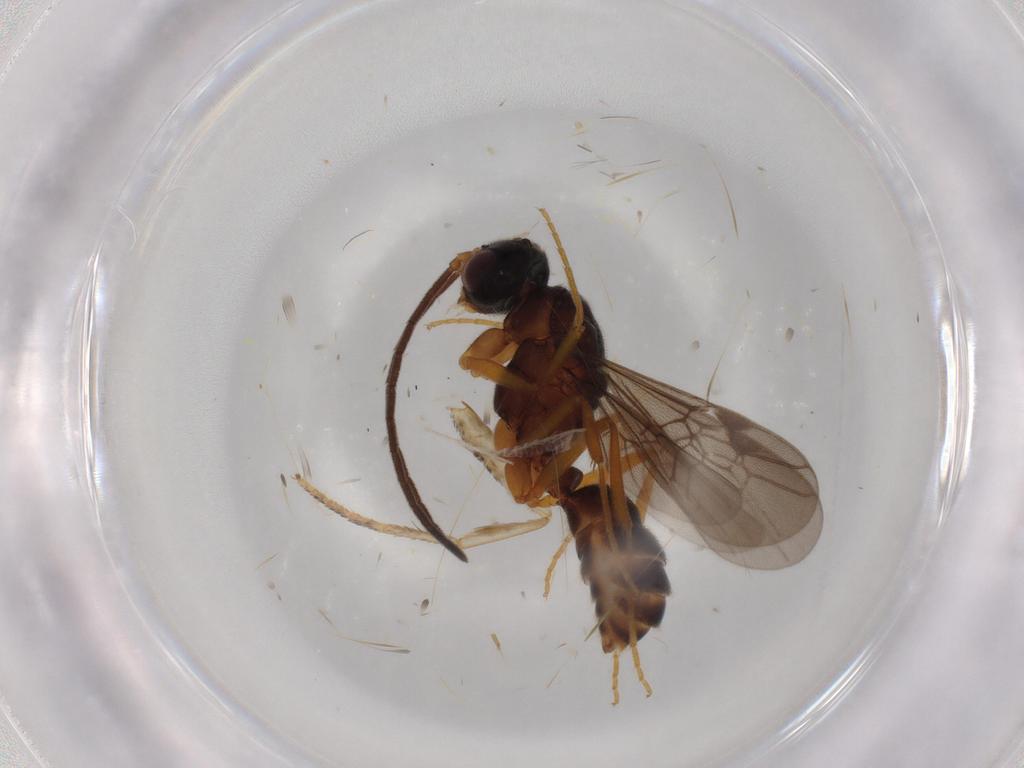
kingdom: Animalia
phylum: Arthropoda
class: Insecta
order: Hymenoptera
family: Formicidae
